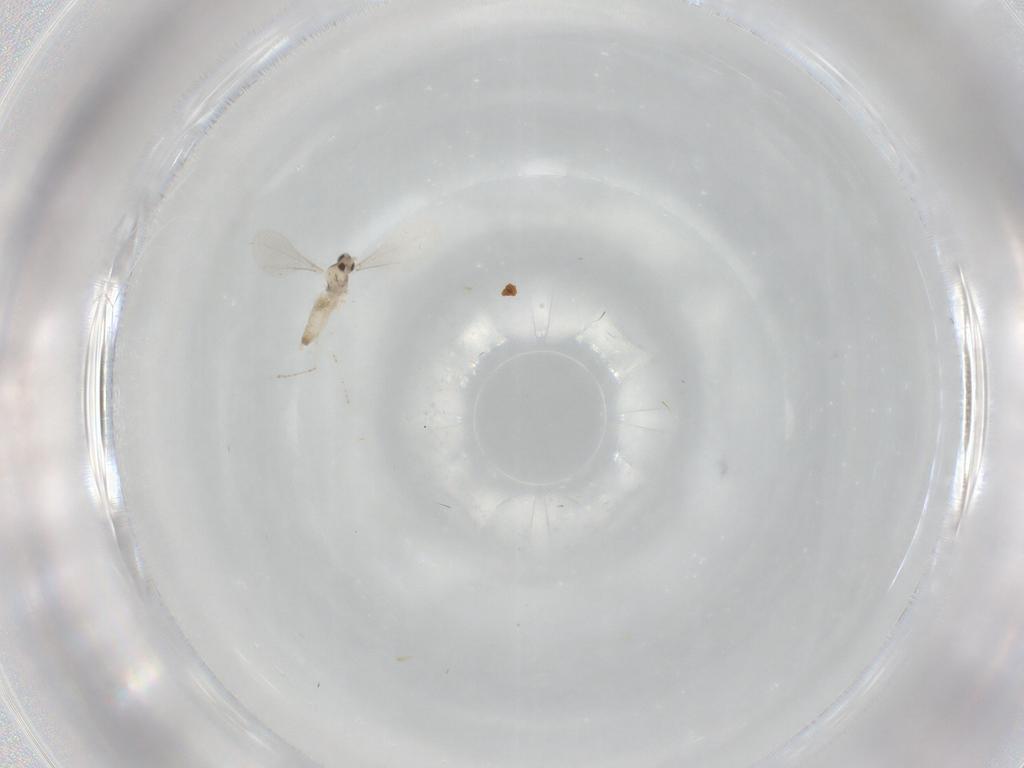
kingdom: Animalia
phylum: Arthropoda
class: Insecta
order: Diptera
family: Cecidomyiidae
